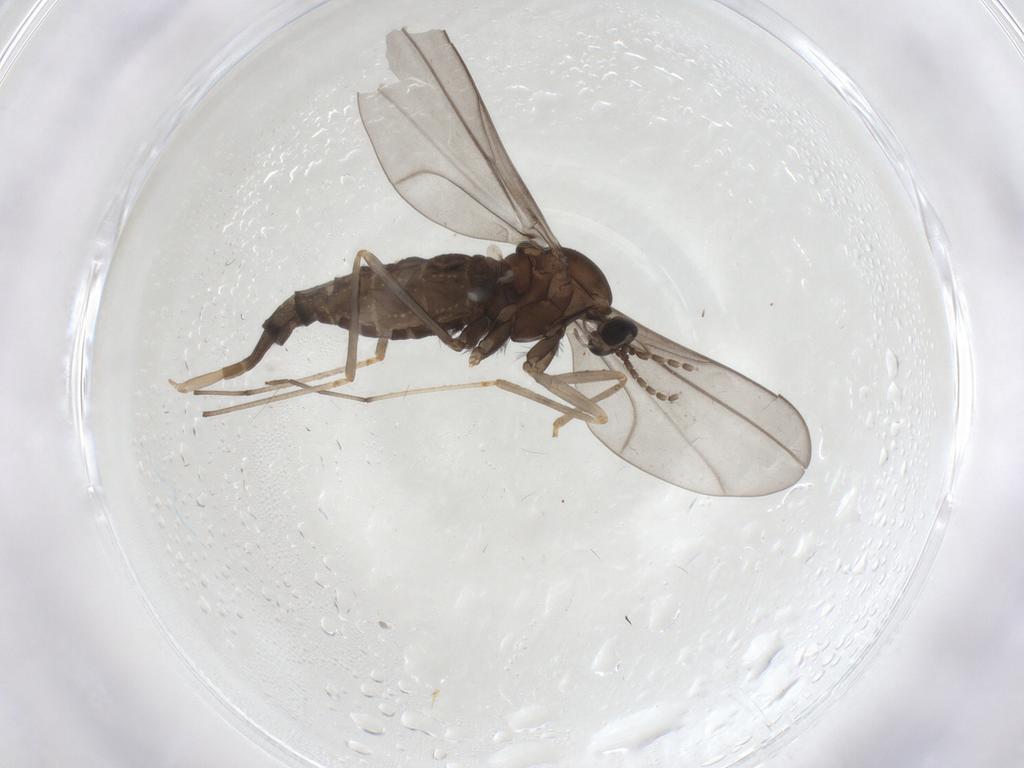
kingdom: Animalia
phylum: Arthropoda
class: Insecta
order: Diptera
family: Cecidomyiidae
